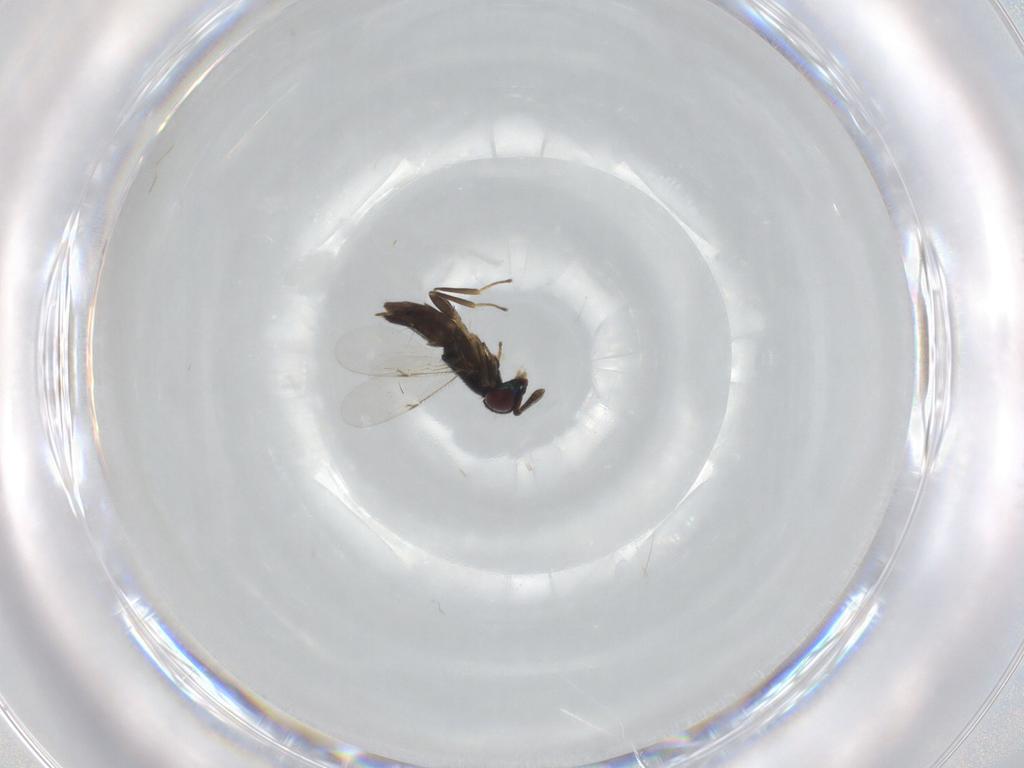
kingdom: Animalia
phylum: Arthropoda
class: Insecta
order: Hymenoptera
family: Encyrtidae
